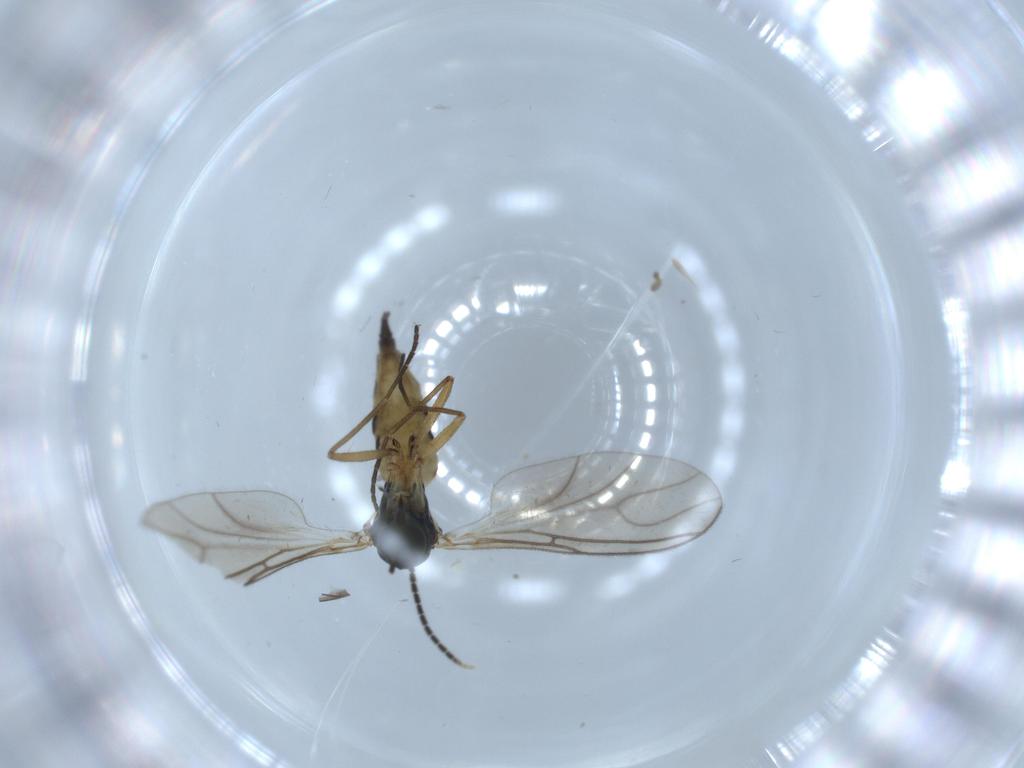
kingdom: Animalia
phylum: Arthropoda
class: Insecta
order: Diptera
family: Sciaridae
